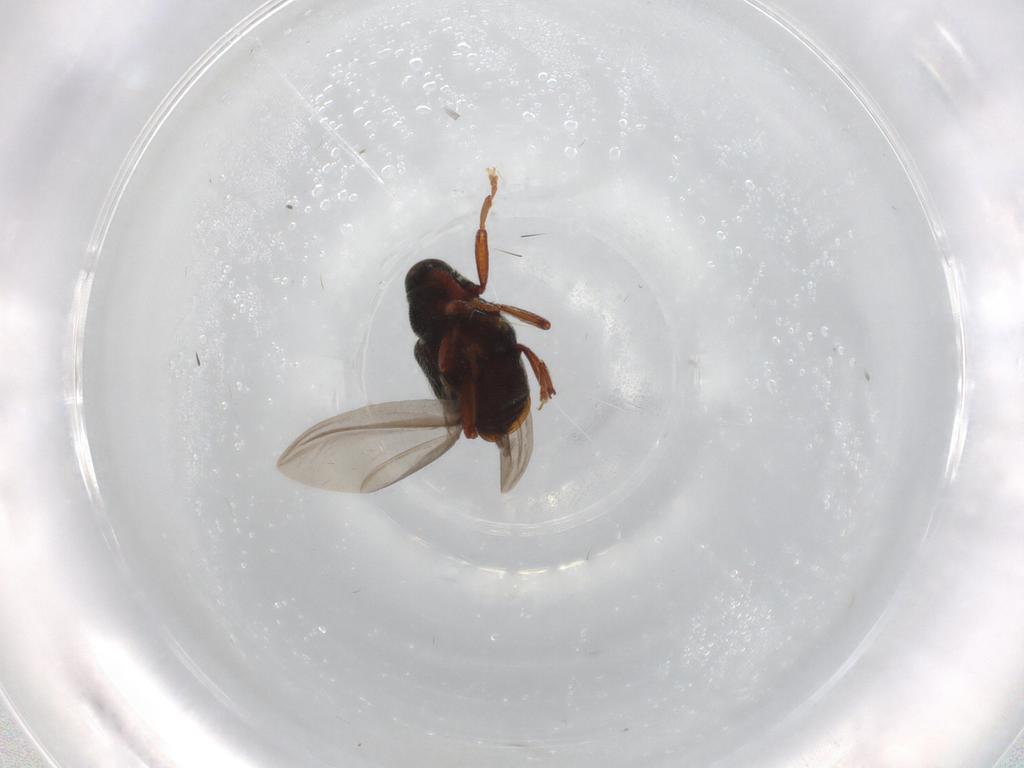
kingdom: Animalia
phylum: Arthropoda
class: Insecta
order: Coleoptera
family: Curculionidae
